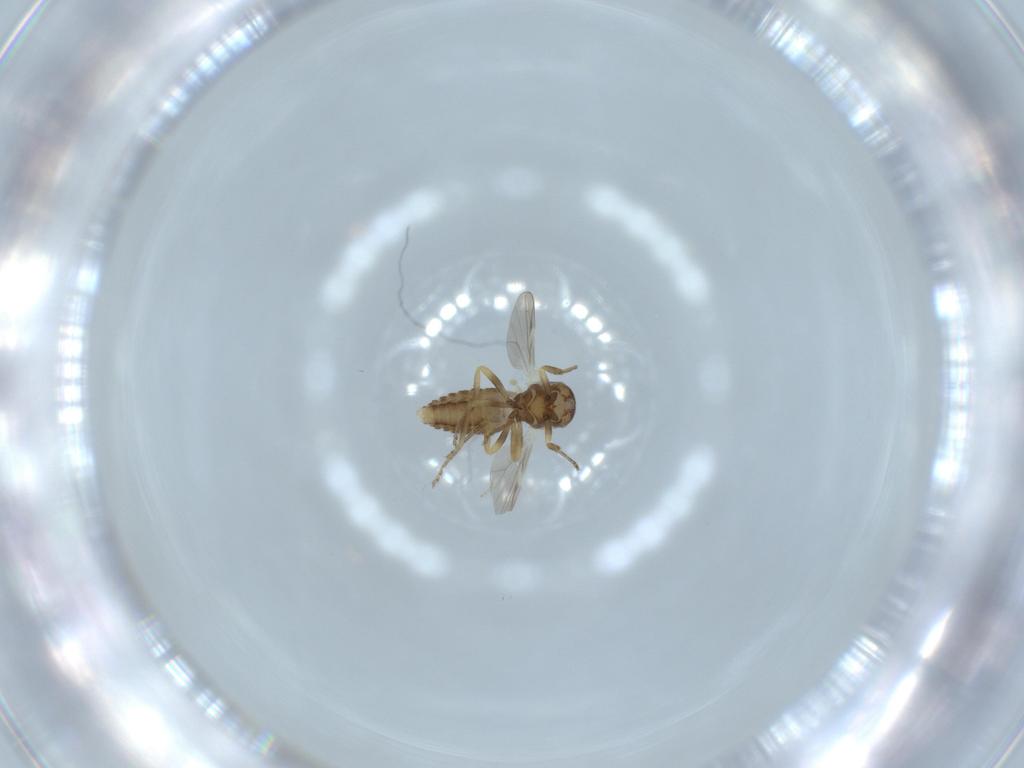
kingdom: Animalia
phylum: Arthropoda
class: Insecta
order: Diptera
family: Ceratopogonidae
